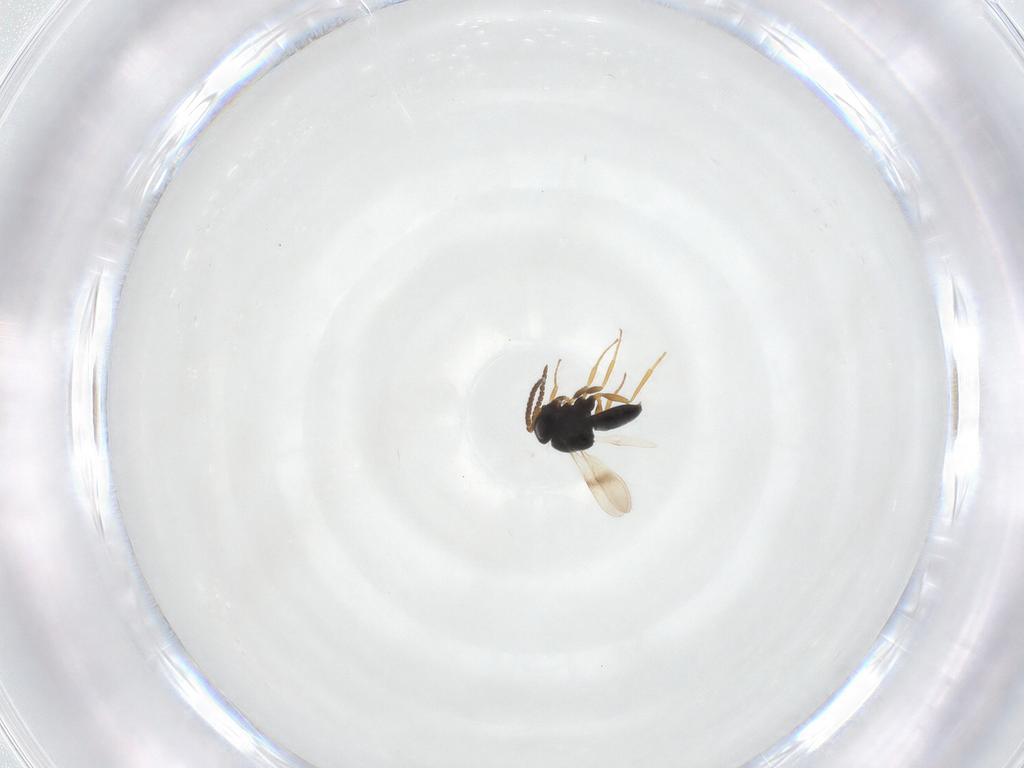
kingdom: Animalia
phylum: Arthropoda
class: Insecta
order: Hymenoptera
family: Scelionidae
